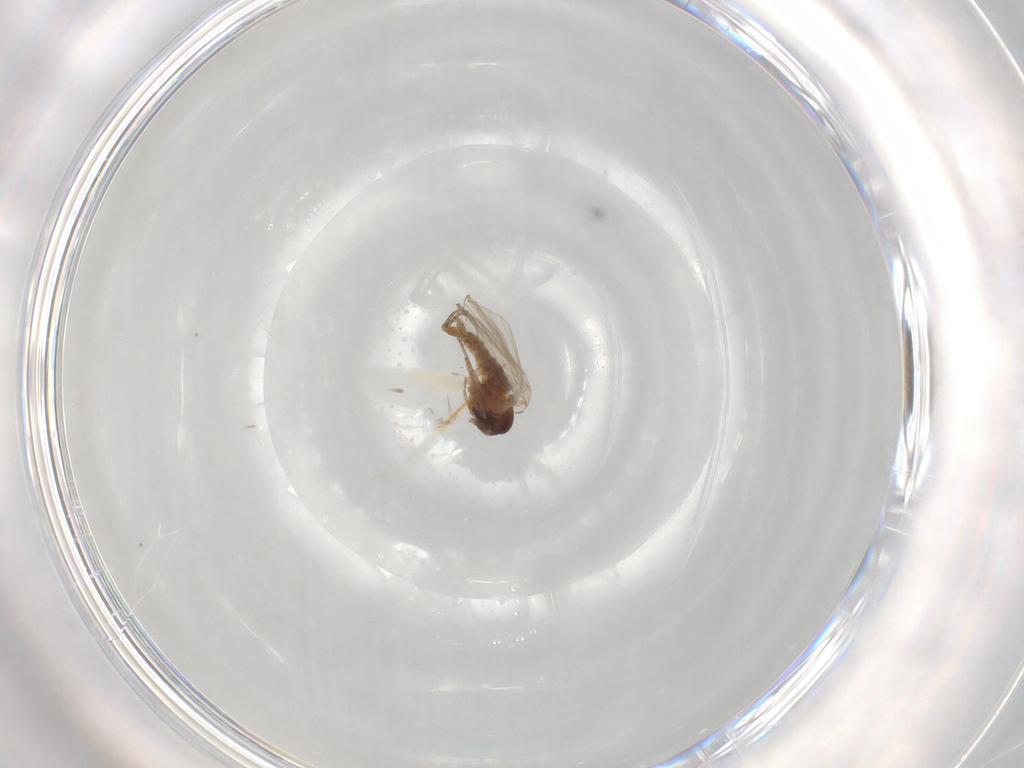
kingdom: Animalia
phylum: Arthropoda
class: Insecta
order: Diptera
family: Psychodidae
